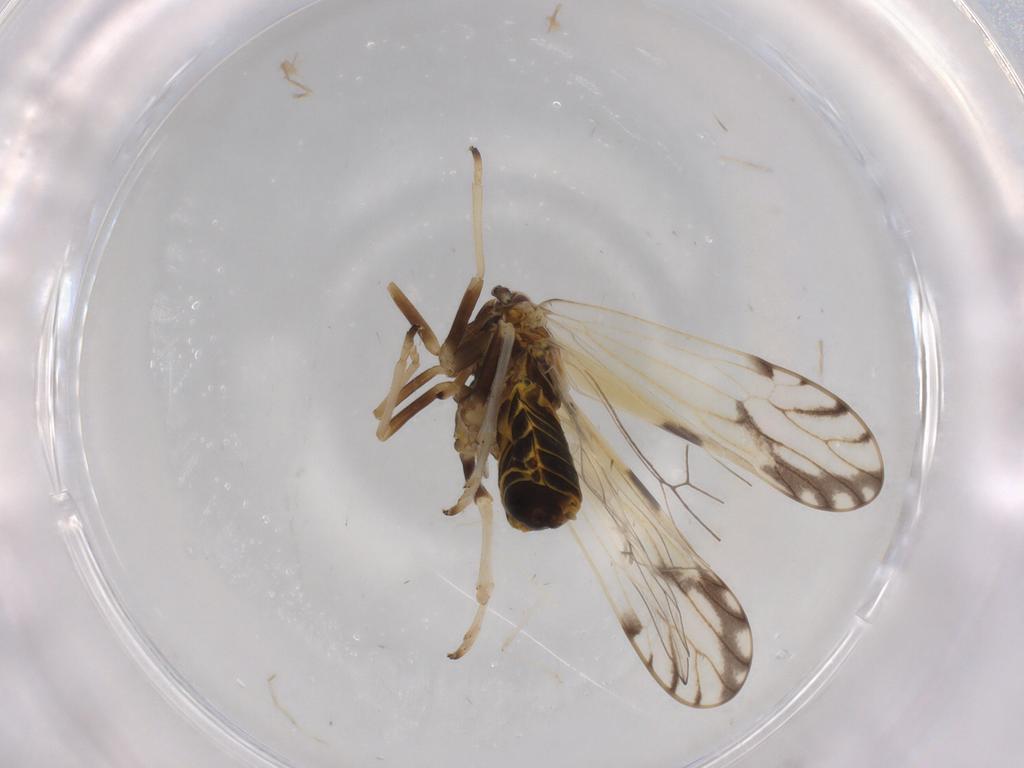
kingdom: Animalia
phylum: Arthropoda
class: Insecta
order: Hemiptera
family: Delphacidae
